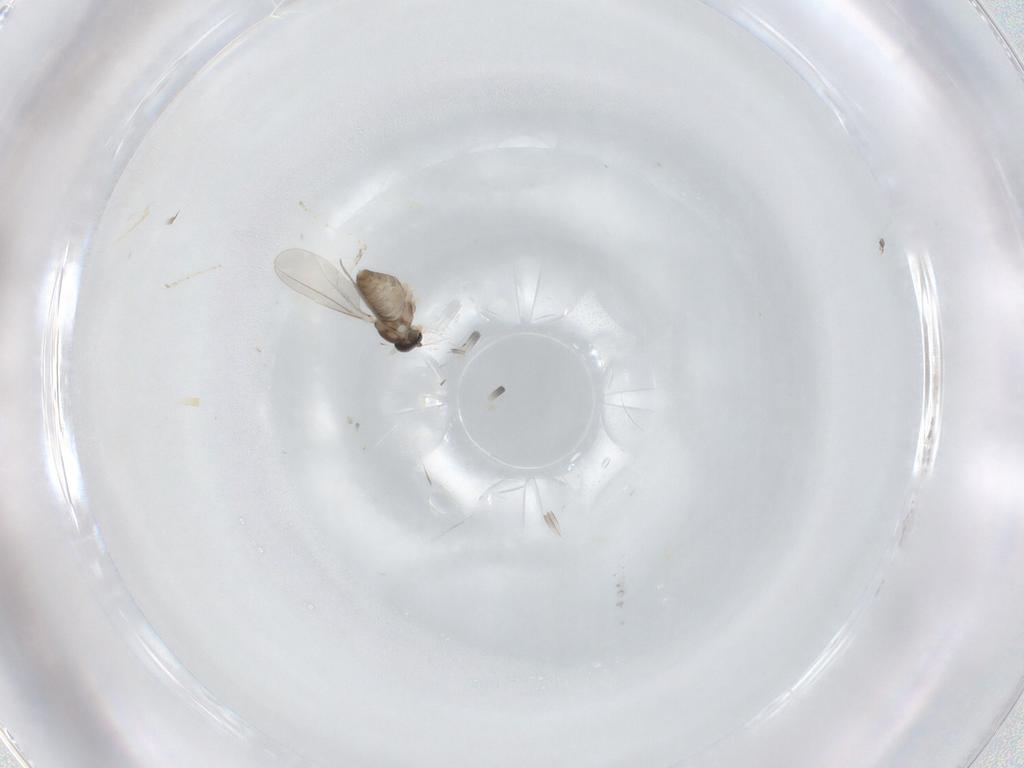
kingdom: Animalia
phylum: Arthropoda
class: Insecta
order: Diptera
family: Cecidomyiidae
